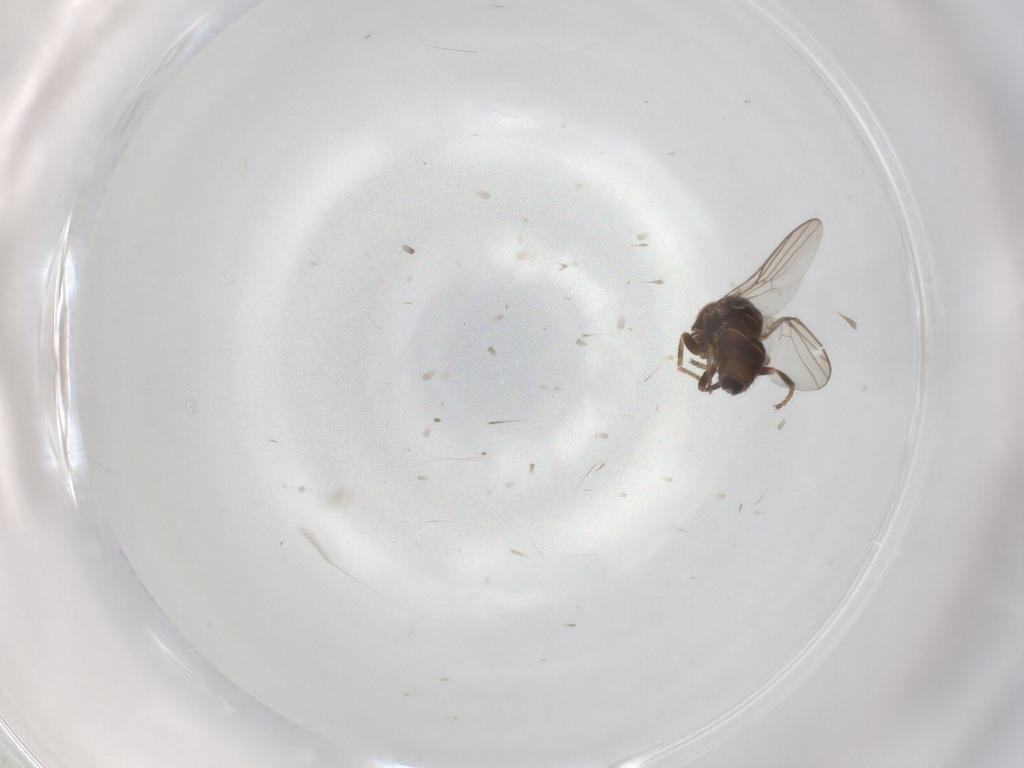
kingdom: Animalia
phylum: Arthropoda
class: Insecta
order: Diptera
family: Chloropidae
